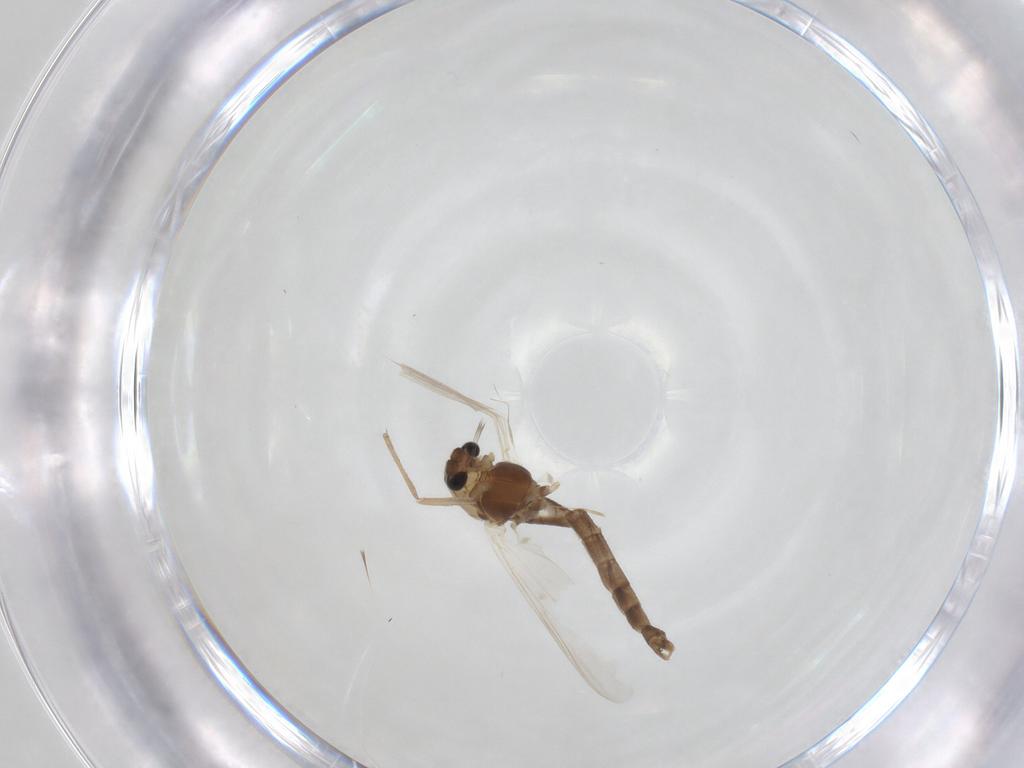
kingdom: Animalia
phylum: Arthropoda
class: Insecta
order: Diptera
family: Chironomidae
